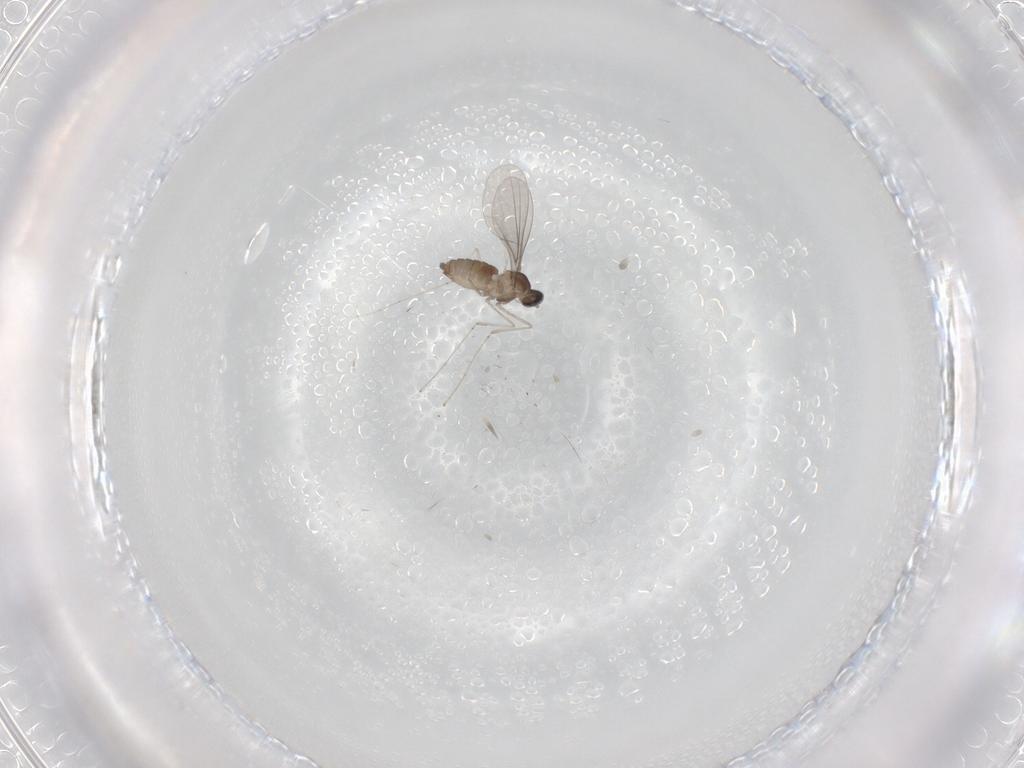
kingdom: Animalia
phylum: Arthropoda
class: Insecta
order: Diptera
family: Cecidomyiidae
